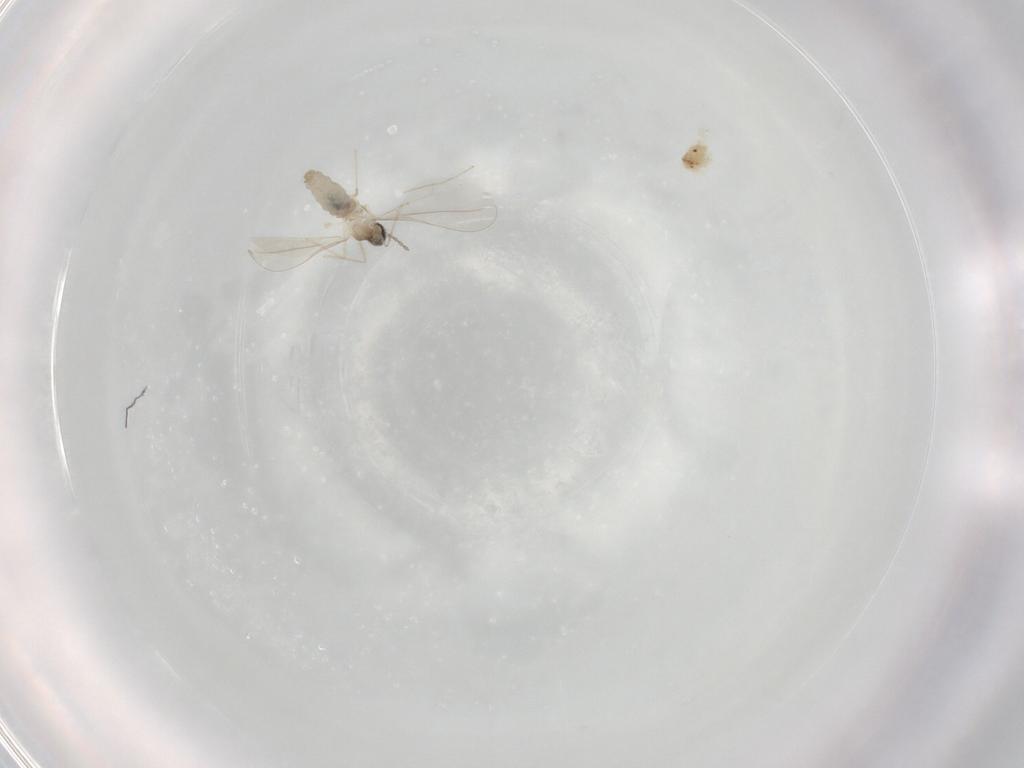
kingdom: Animalia
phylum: Arthropoda
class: Insecta
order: Diptera
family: Cecidomyiidae
